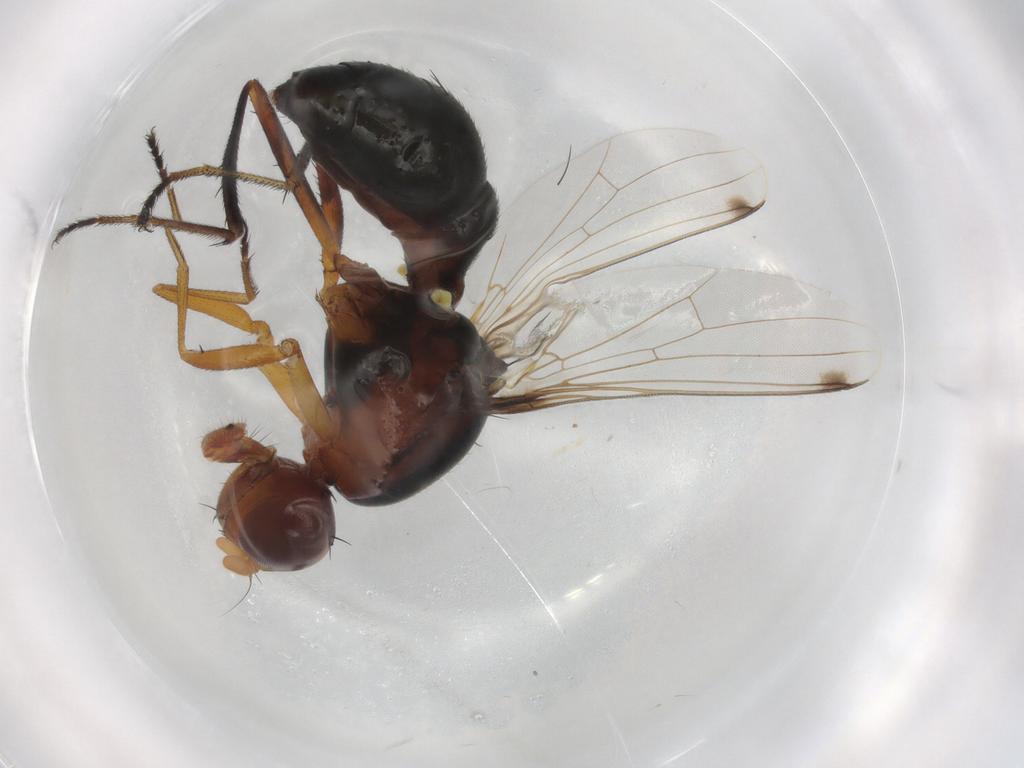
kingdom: Animalia
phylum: Arthropoda
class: Insecta
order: Diptera
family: Sepsidae
